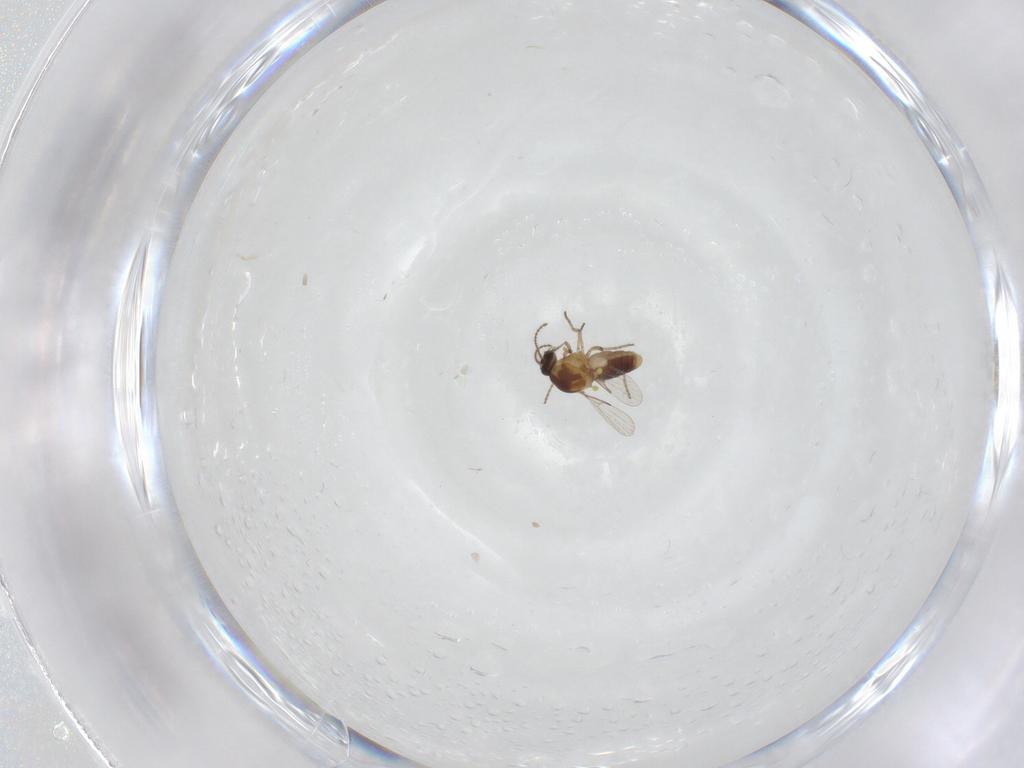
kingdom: Animalia
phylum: Arthropoda
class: Insecta
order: Diptera
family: Ceratopogonidae
